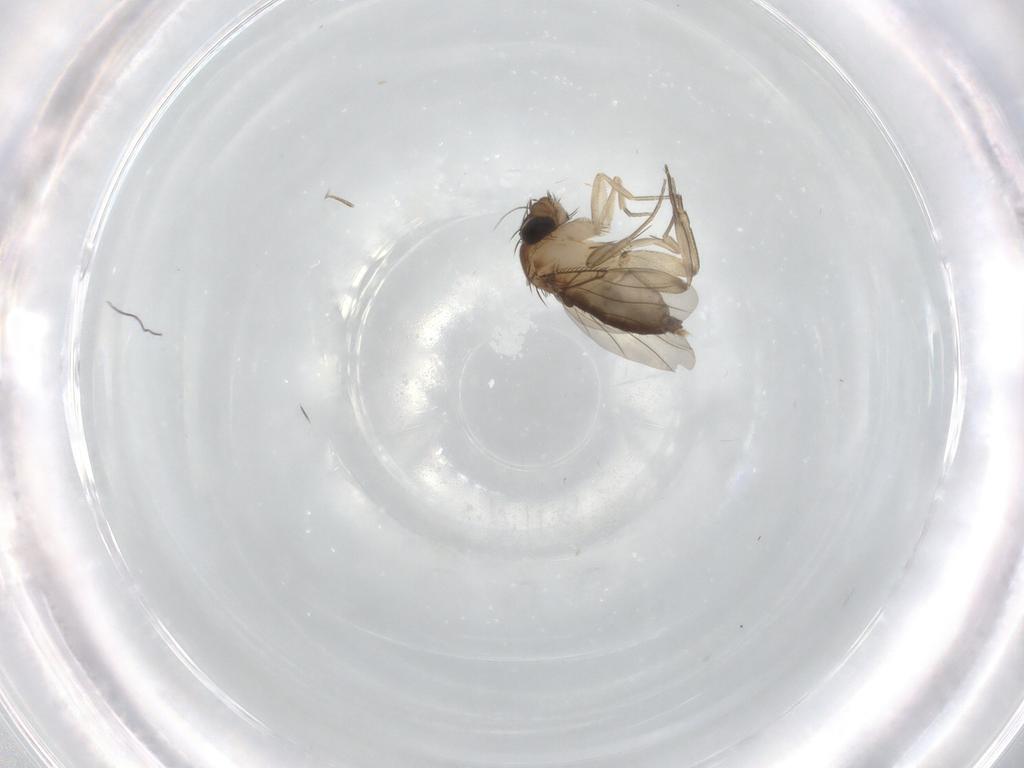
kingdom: Animalia
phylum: Arthropoda
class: Insecta
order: Diptera
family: Phoridae
